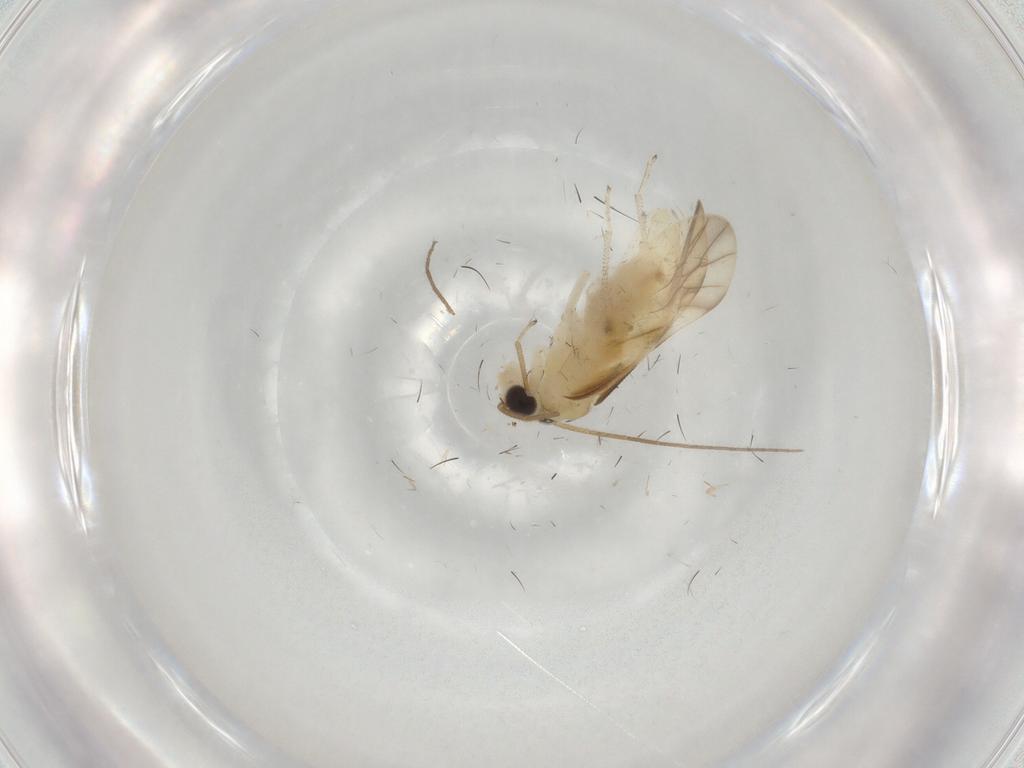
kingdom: Animalia
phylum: Arthropoda
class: Insecta
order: Psocodea
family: Caeciliusidae
